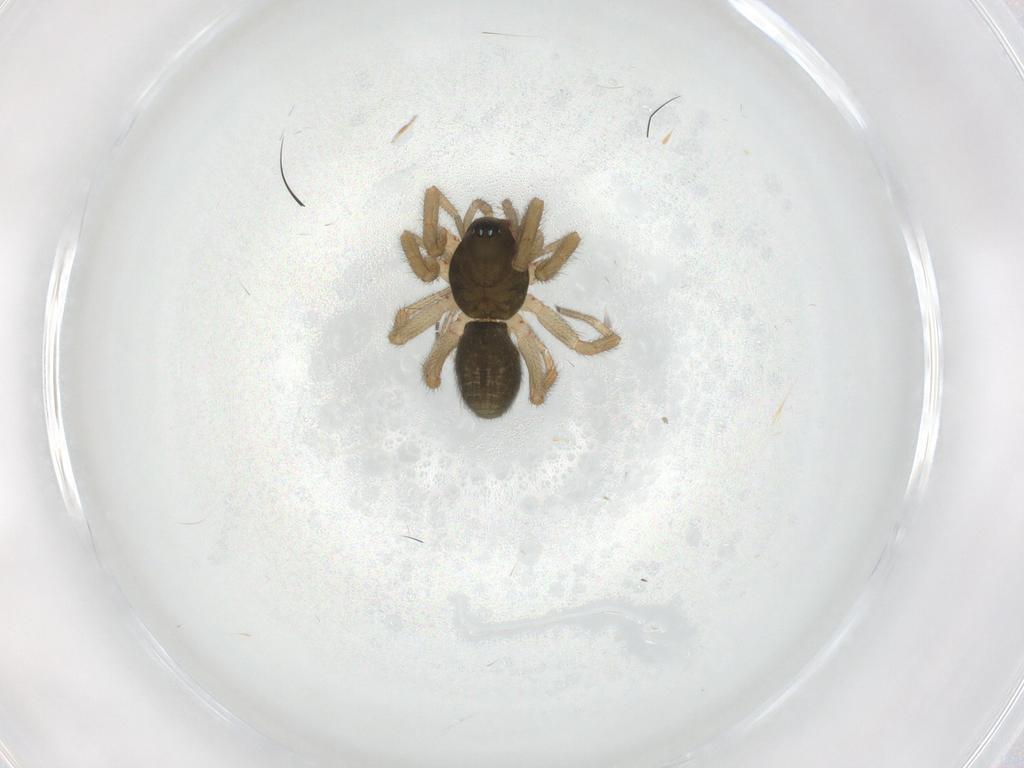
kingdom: Animalia
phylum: Arthropoda
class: Arachnida
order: Araneae
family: Linyphiidae
